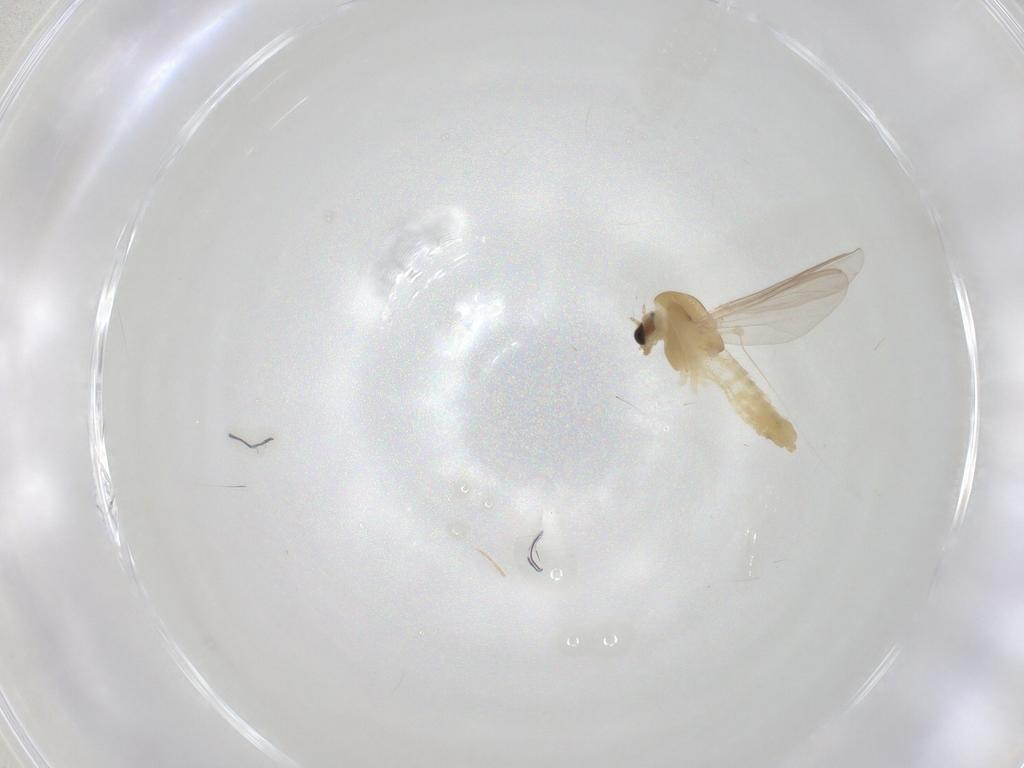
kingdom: Animalia
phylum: Arthropoda
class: Insecta
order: Diptera
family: Chironomidae
